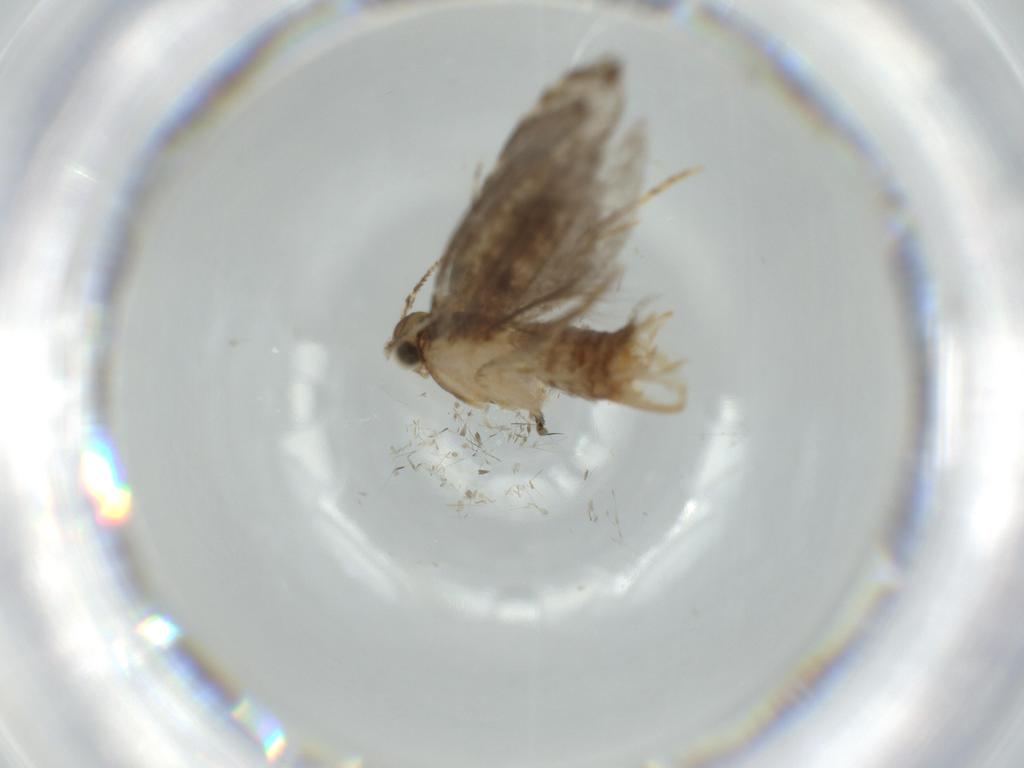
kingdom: Animalia
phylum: Arthropoda
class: Insecta
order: Lepidoptera
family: Tineidae
